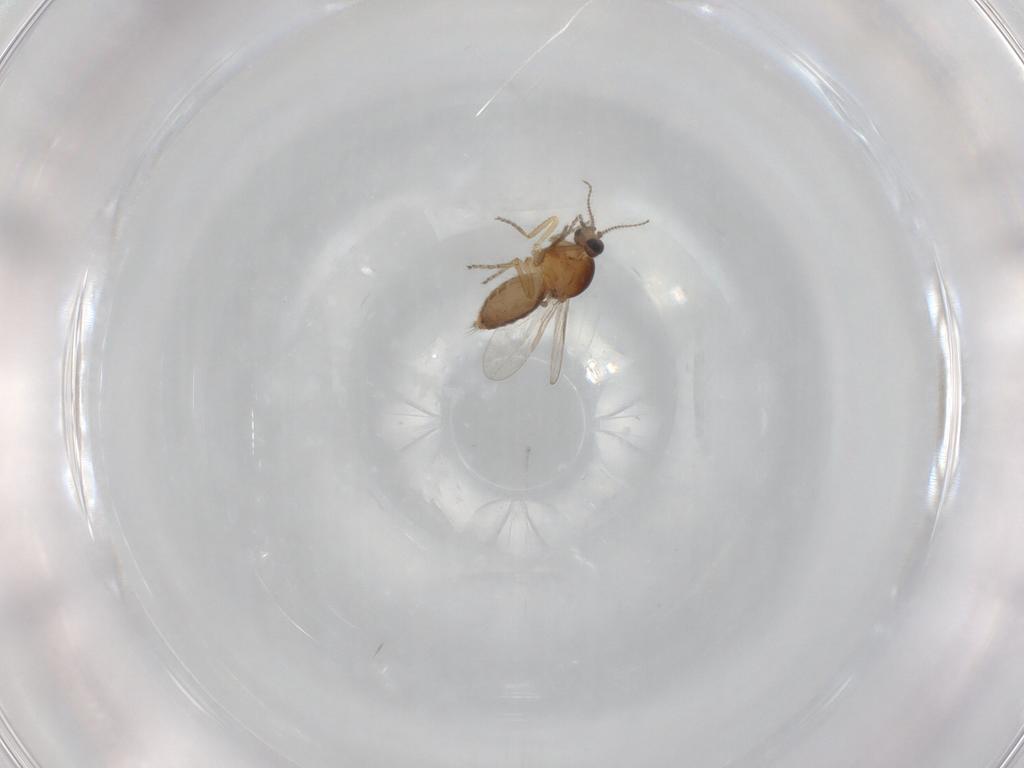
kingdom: Animalia
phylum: Arthropoda
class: Insecta
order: Diptera
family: Ceratopogonidae
